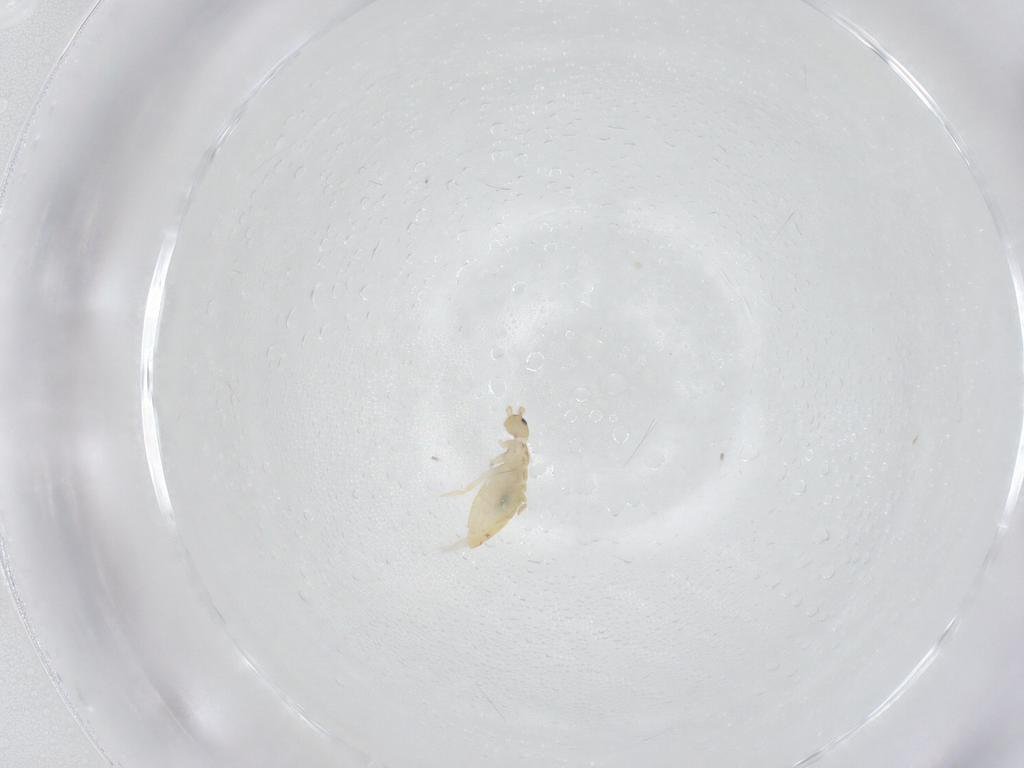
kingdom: Animalia
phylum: Arthropoda
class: Collembola
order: Entomobryomorpha
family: Entomobryidae
